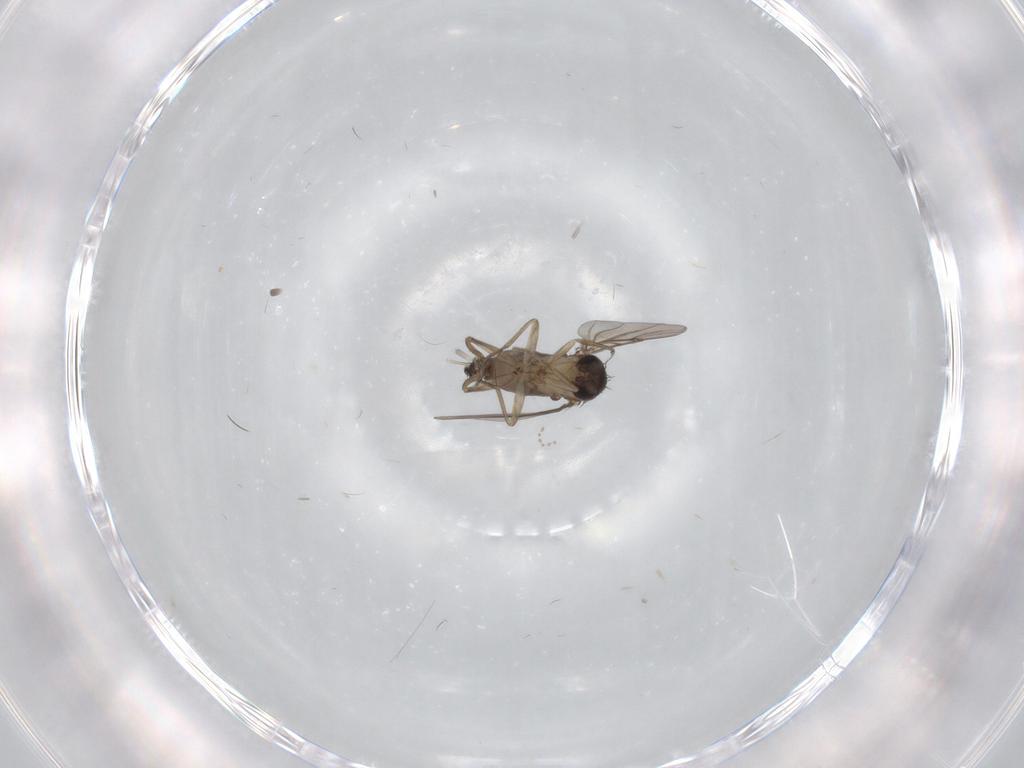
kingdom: Animalia
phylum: Arthropoda
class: Insecta
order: Diptera
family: Phoridae
